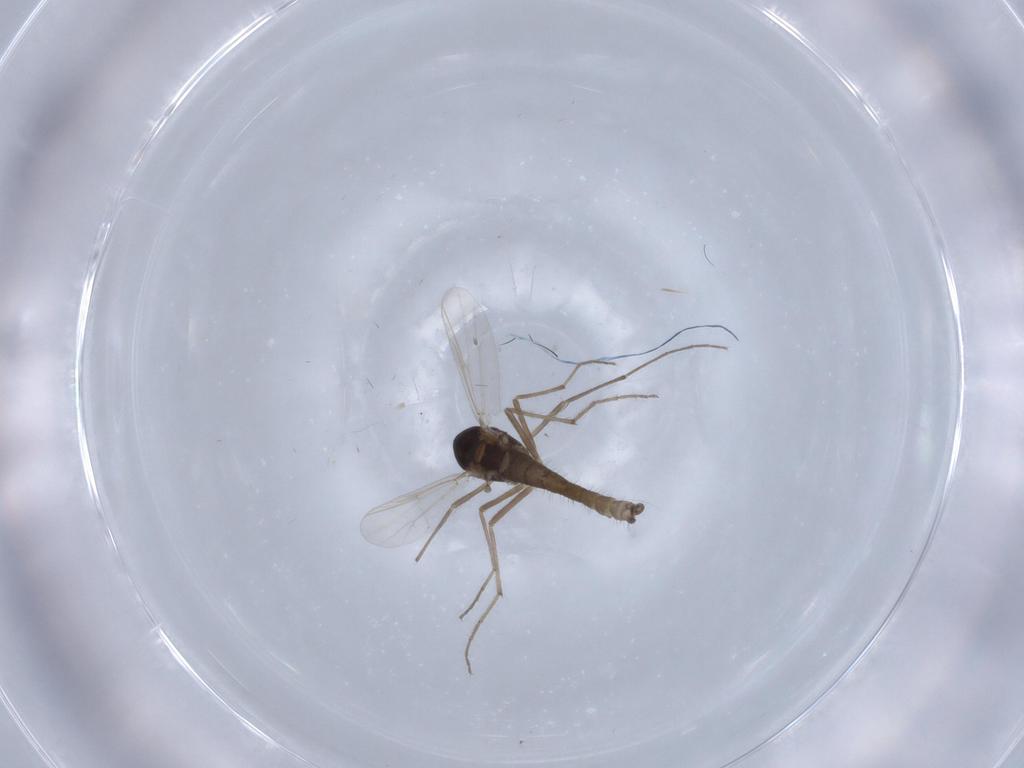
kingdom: Animalia
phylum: Arthropoda
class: Insecta
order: Diptera
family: Chironomidae
